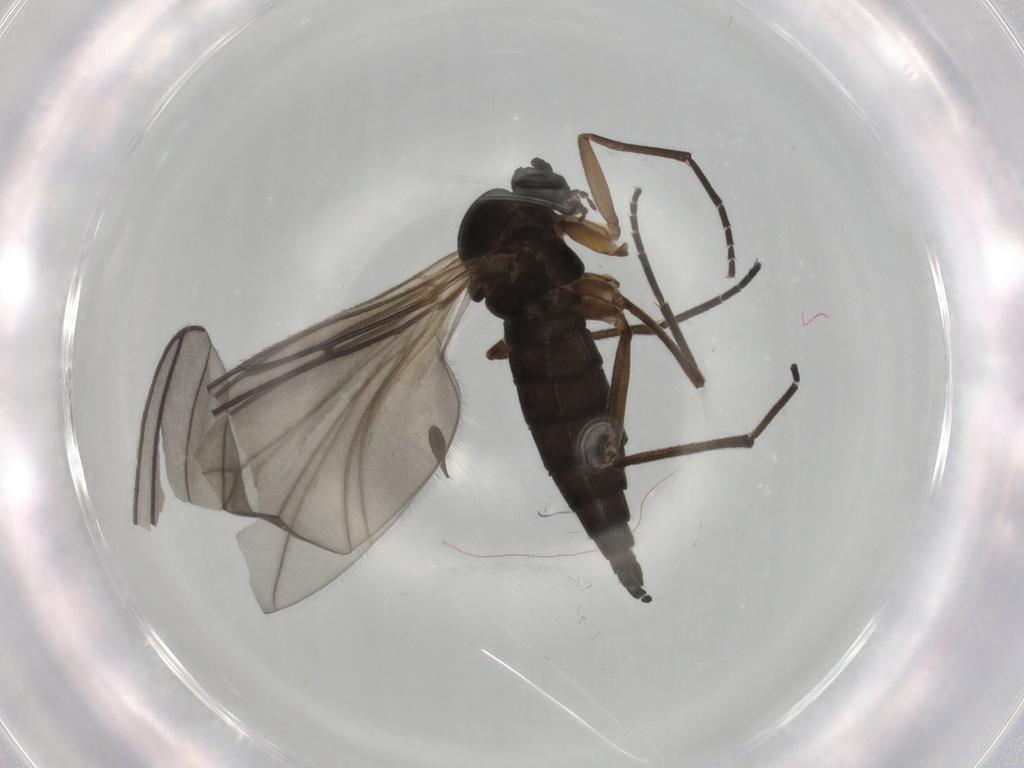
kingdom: Animalia
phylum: Arthropoda
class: Insecta
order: Diptera
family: Sciaridae
